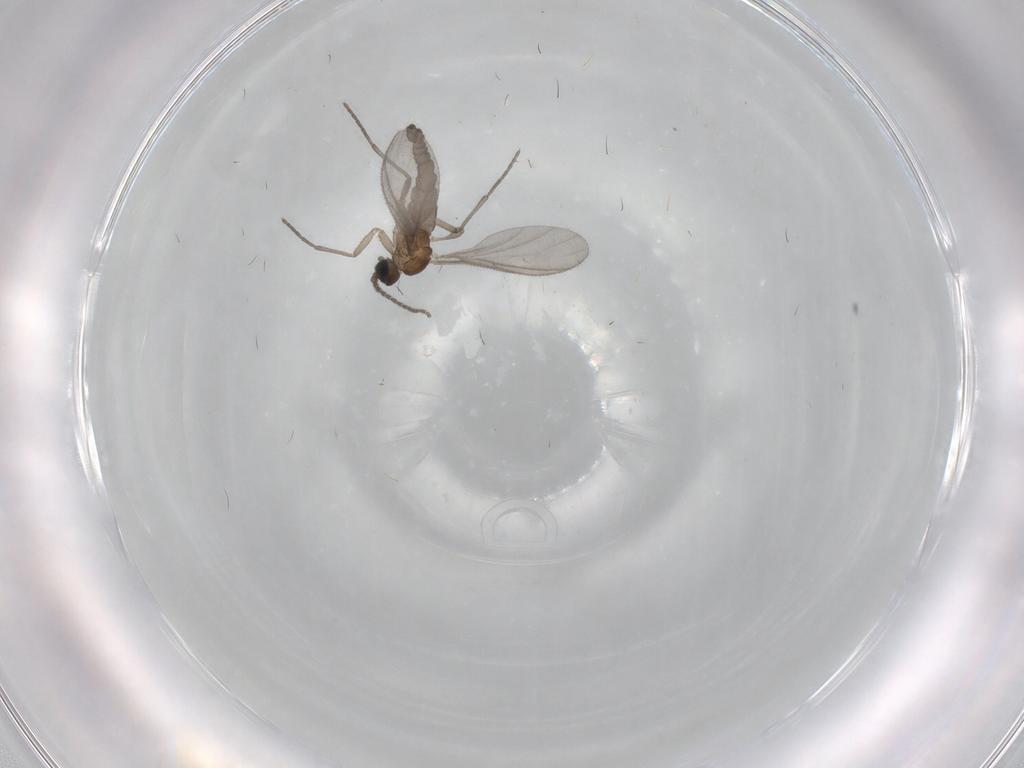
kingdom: Animalia
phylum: Arthropoda
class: Insecta
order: Diptera
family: Sciaridae
